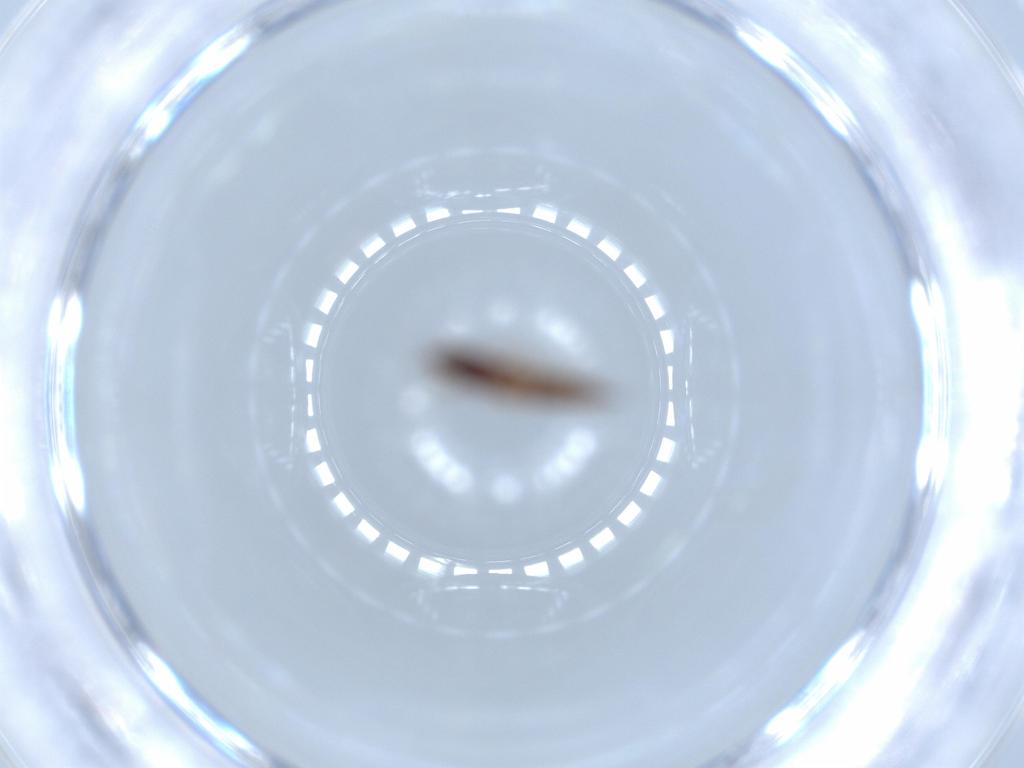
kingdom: Animalia
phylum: Arthropoda
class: Insecta
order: Thysanoptera
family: Phlaeothripidae
